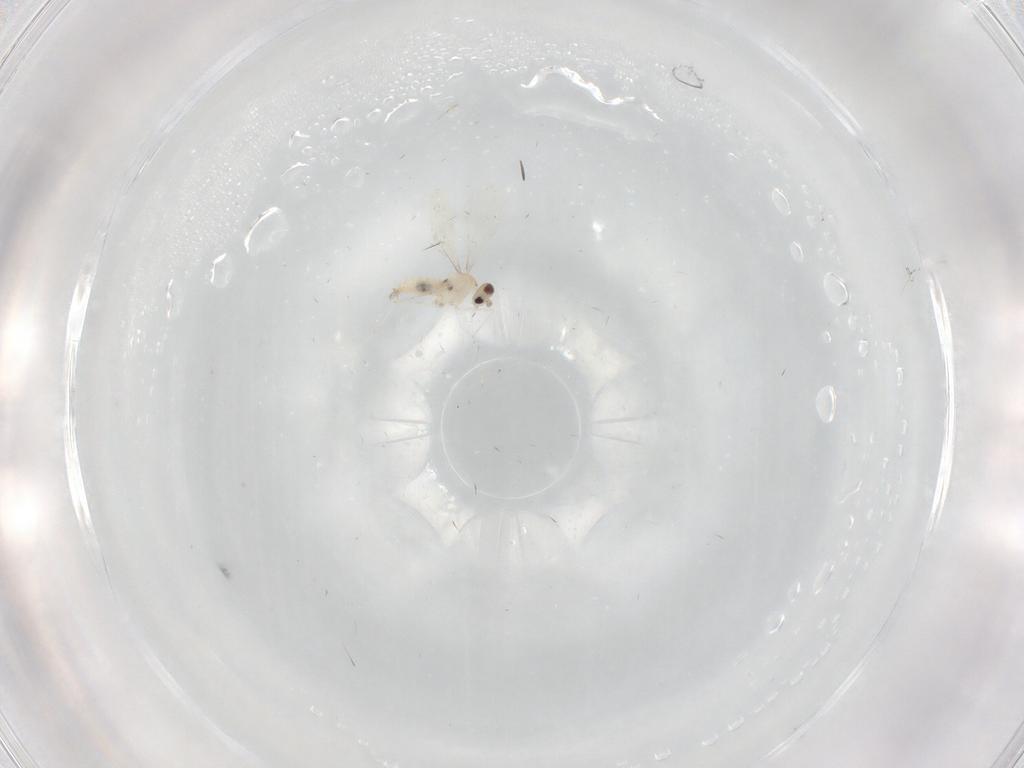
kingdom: Animalia
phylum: Arthropoda
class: Insecta
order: Diptera
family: Cecidomyiidae
